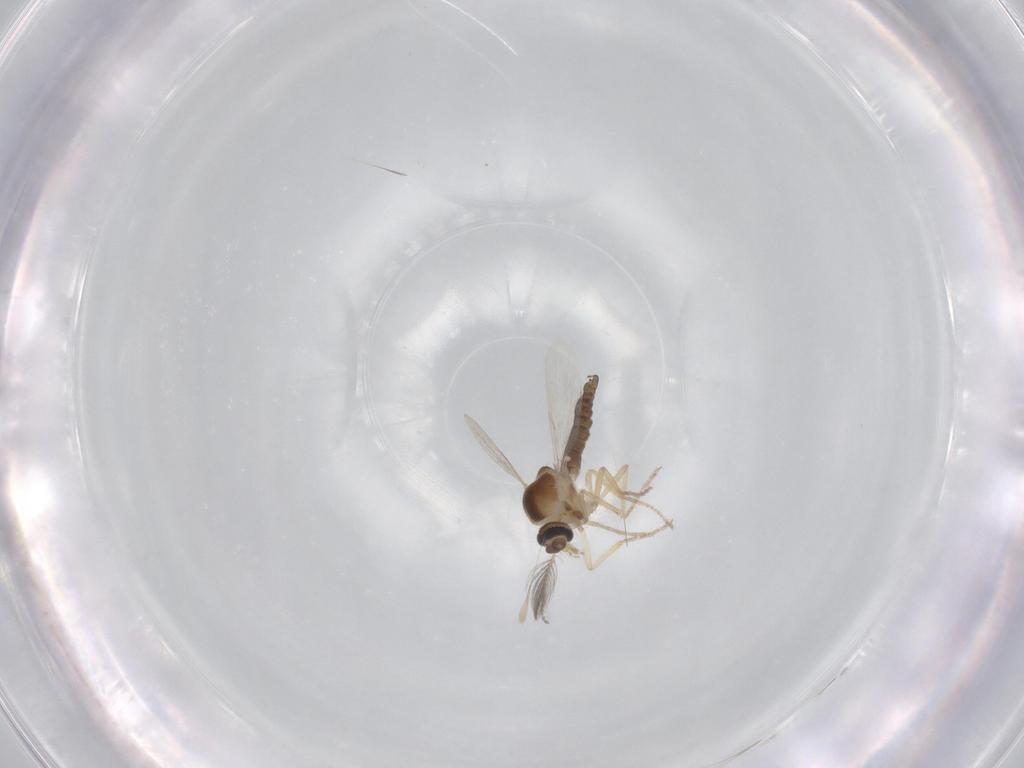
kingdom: Animalia
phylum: Arthropoda
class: Insecta
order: Diptera
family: Ceratopogonidae
